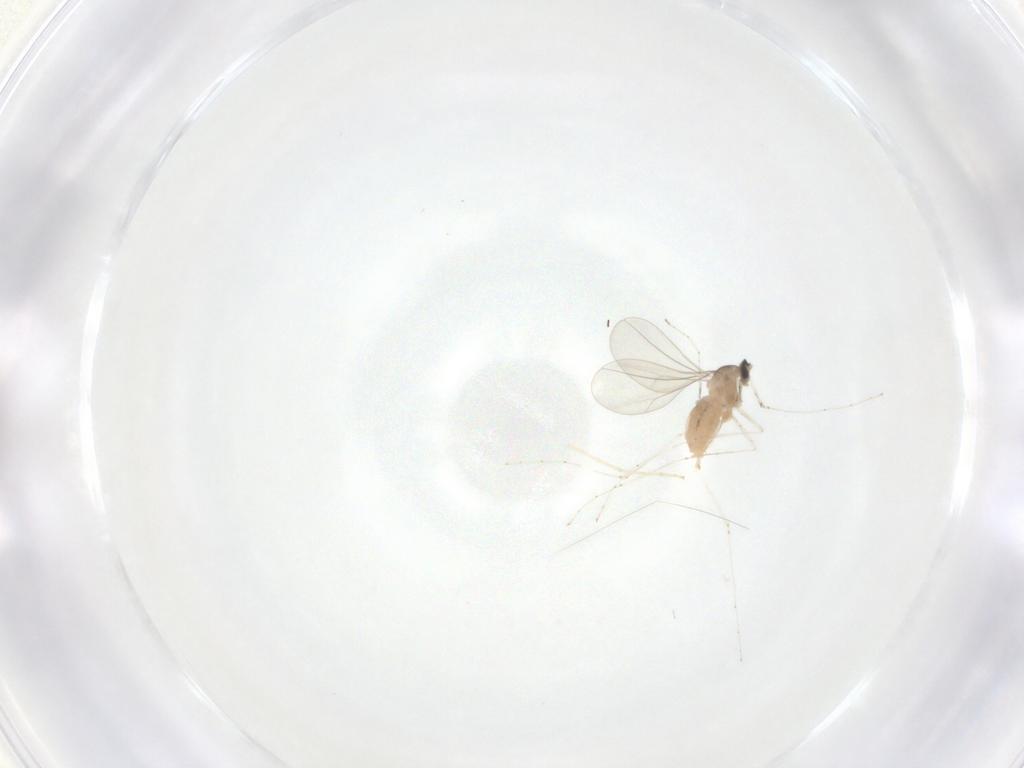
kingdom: Animalia
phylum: Arthropoda
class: Insecta
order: Diptera
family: Cecidomyiidae
